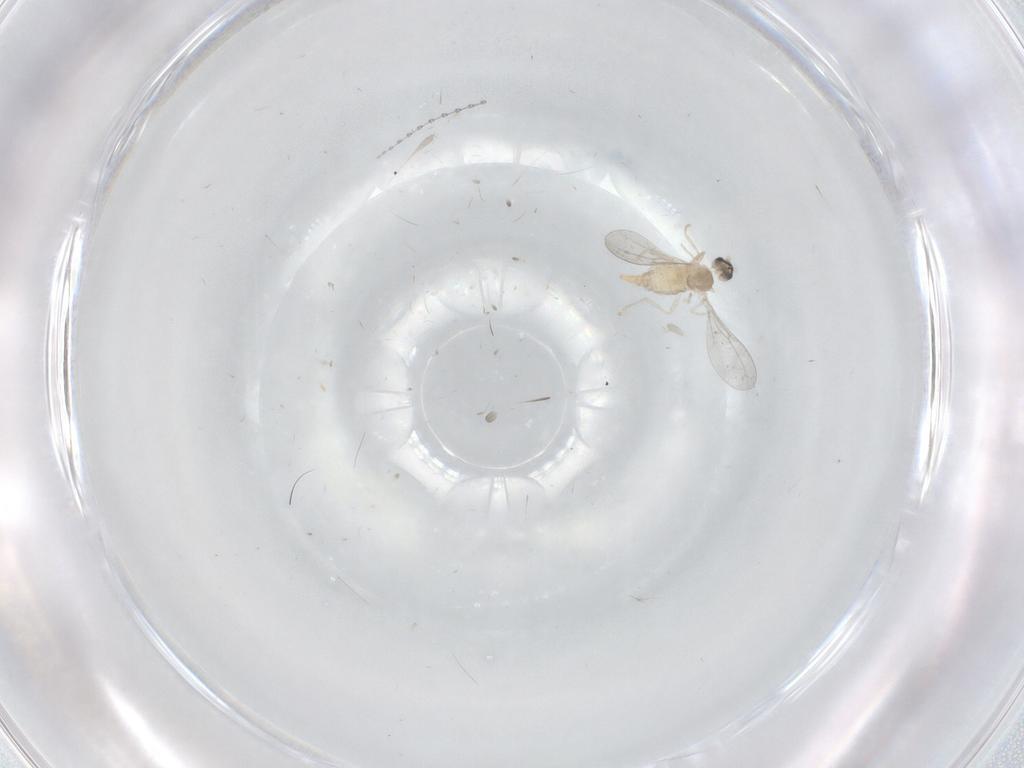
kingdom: Animalia
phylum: Arthropoda
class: Insecta
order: Diptera
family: Cecidomyiidae
